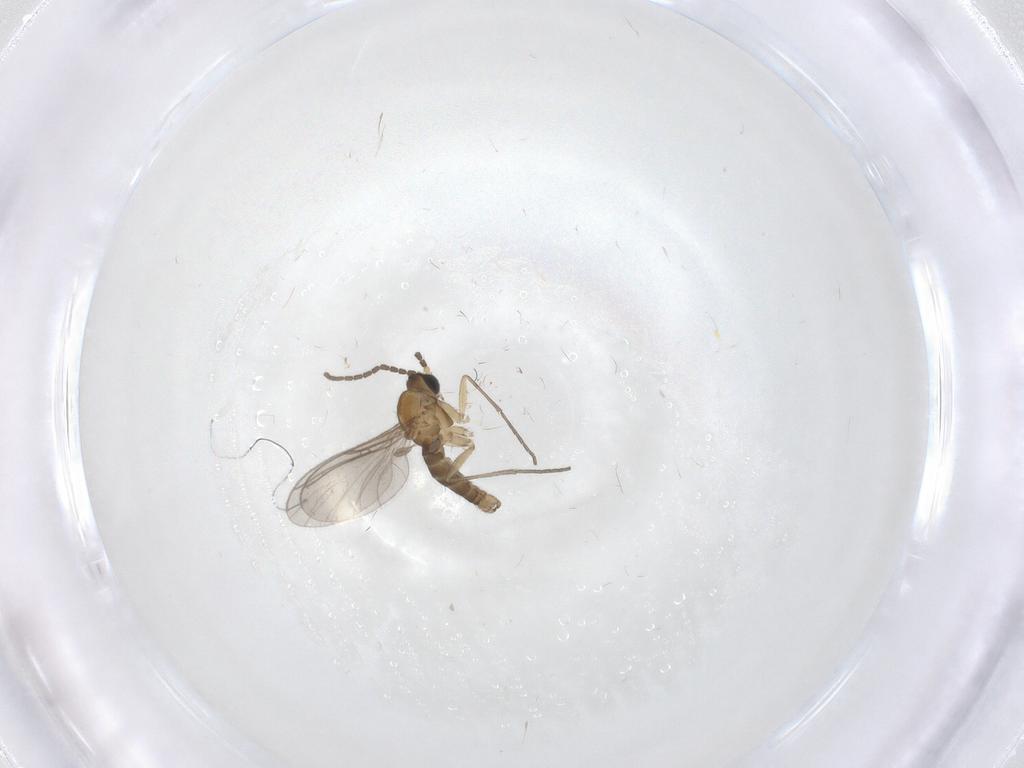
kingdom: Animalia
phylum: Arthropoda
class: Insecta
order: Diptera
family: Sciaridae
